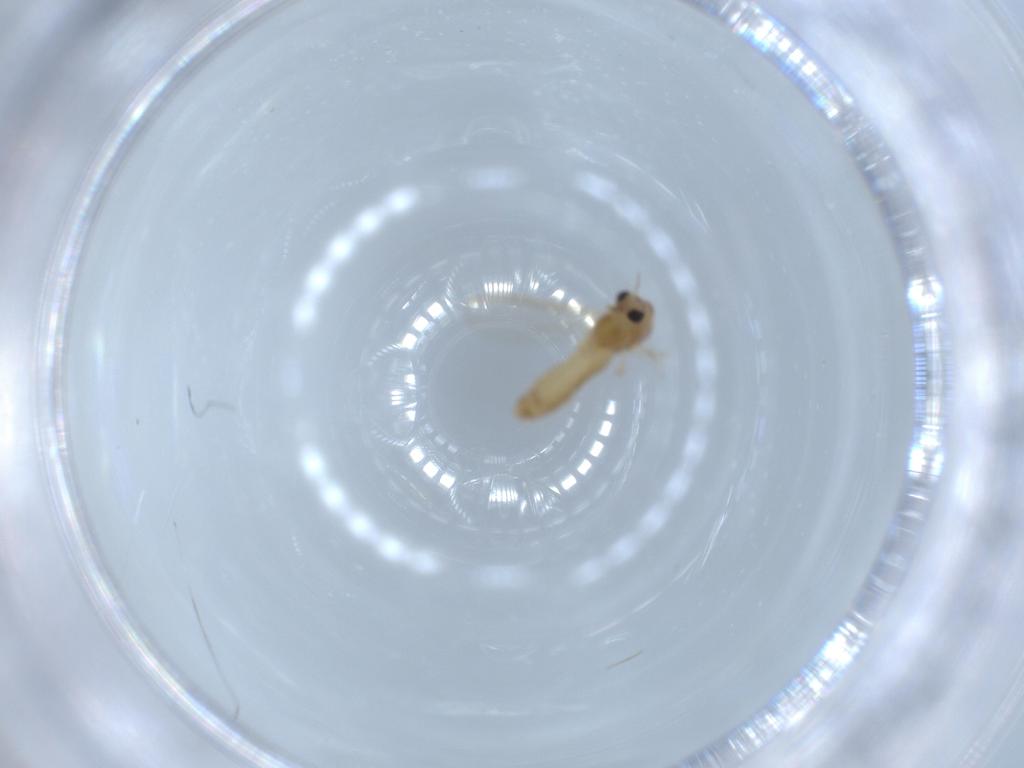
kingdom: Animalia
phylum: Arthropoda
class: Insecta
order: Diptera
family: Chironomidae
